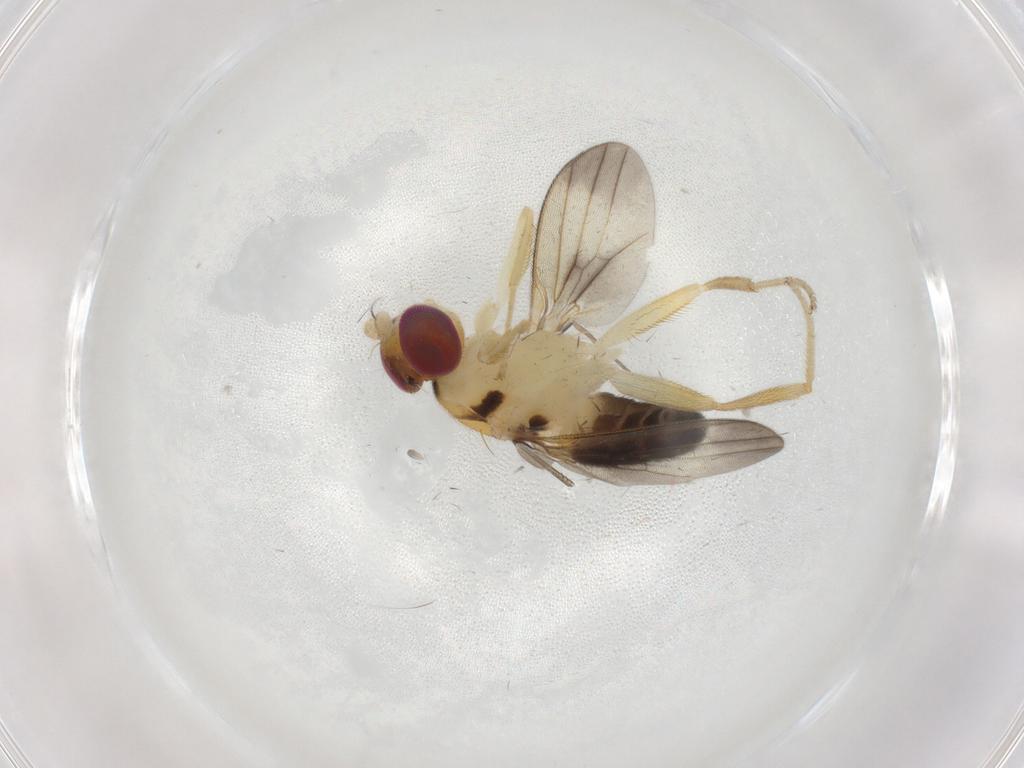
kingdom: Animalia
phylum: Arthropoda
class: Insecta
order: Diptera
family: Clusiidae
